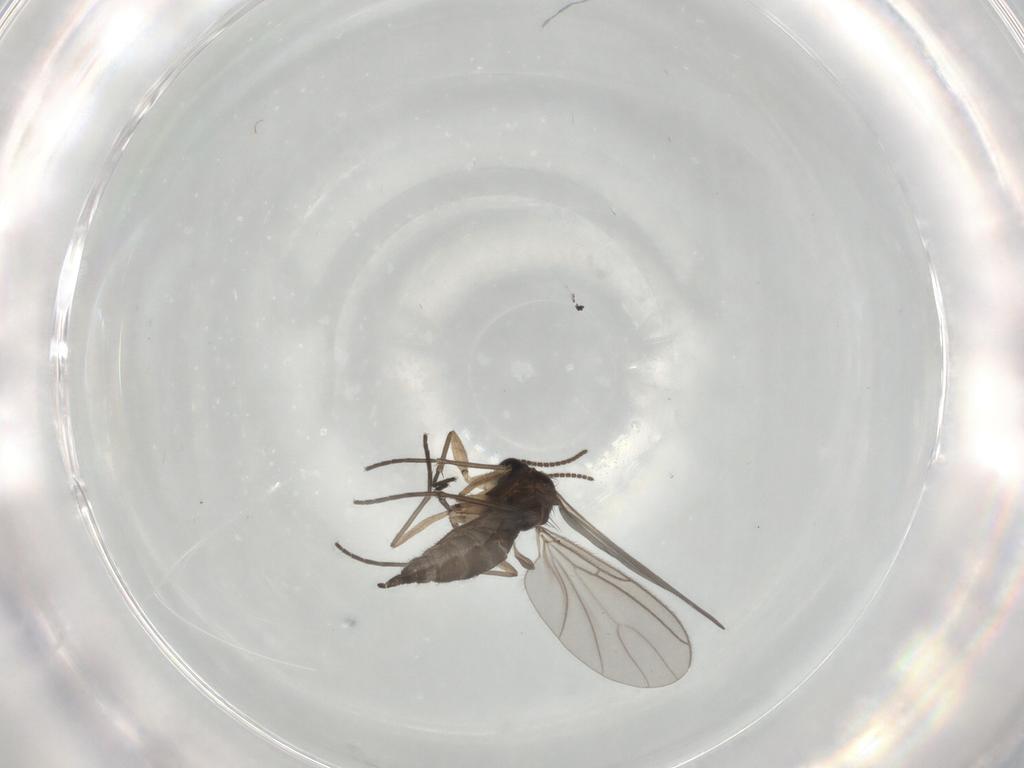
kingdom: Animalia
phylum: Arthropoda
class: Insecta
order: Diptera
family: Sciaridae
